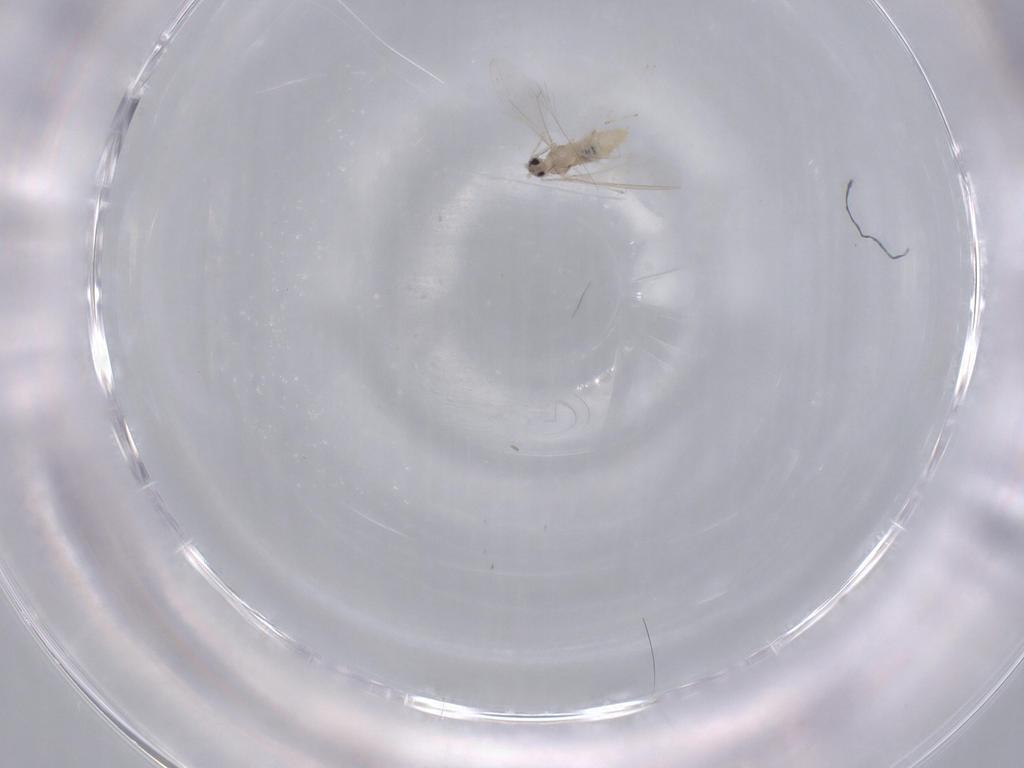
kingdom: Animalia
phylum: Arthropoda
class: Insecta
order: Diptera
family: Cecidomyiidae
